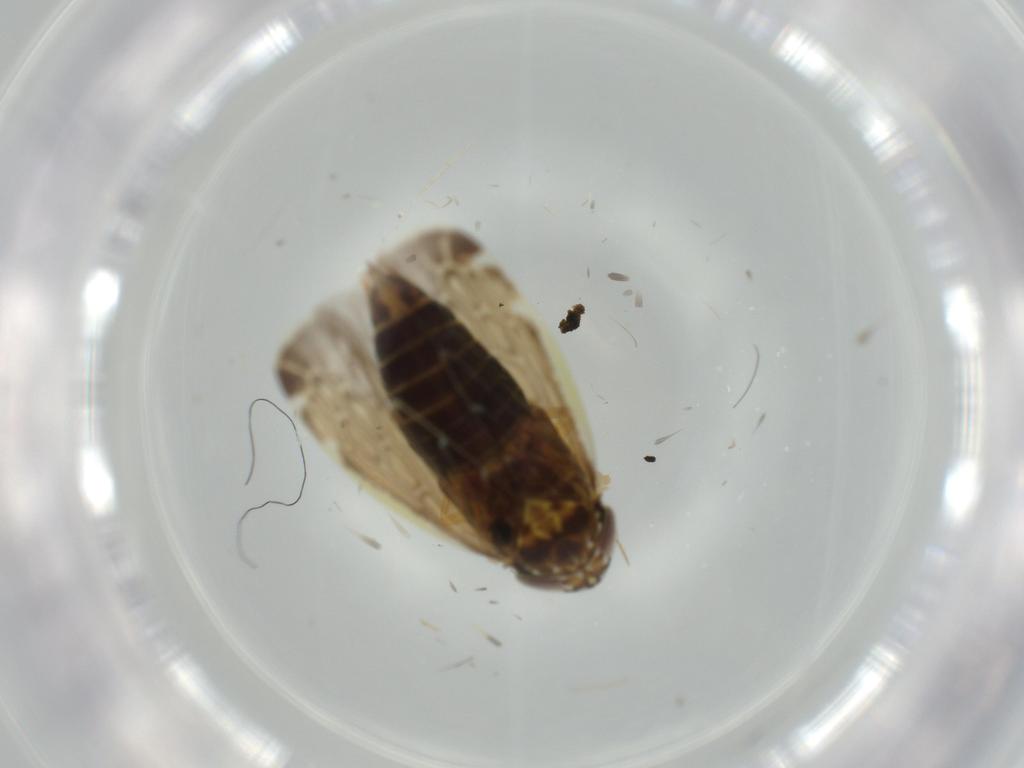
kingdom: Animalia
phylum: Arthropoda
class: Insecta
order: Hemiptera
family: Cicadellidae
